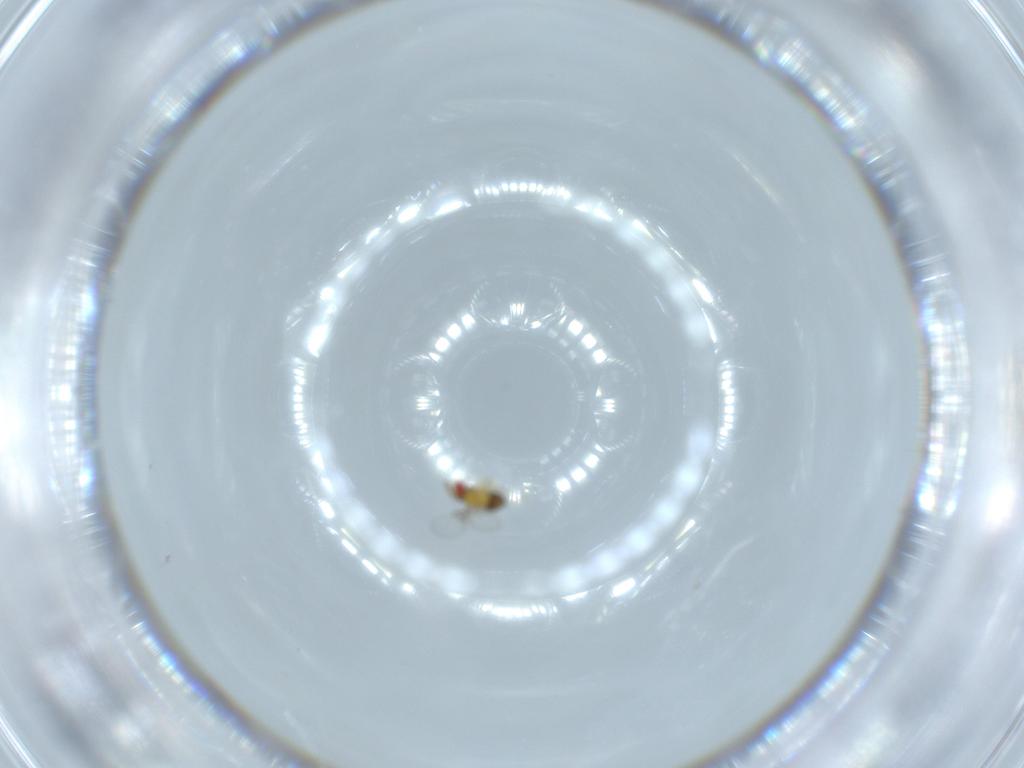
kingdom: Animalia
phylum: Arthropoda
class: Insecta
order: Hymenoptera
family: Trichogrammatidae
